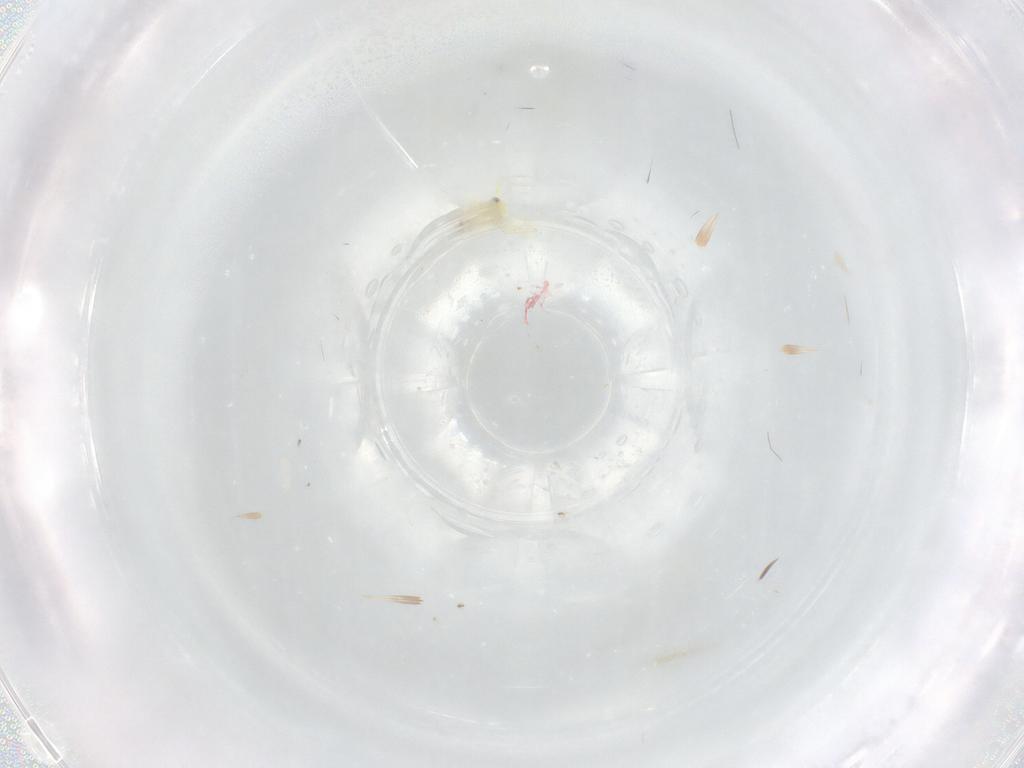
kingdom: Animalia
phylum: Arthropoda
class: Insecta
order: Hemiptera
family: Aleyrodidae
